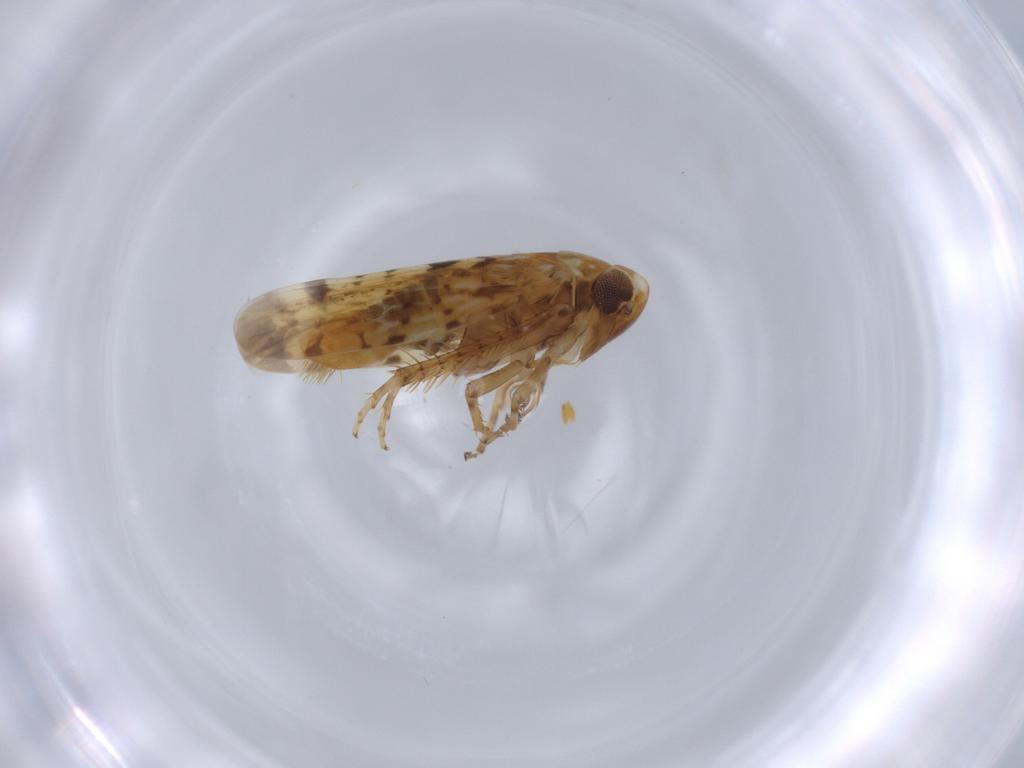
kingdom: Animalia
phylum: Arthropoda
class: Insecta
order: Hemiptera
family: Cicadellidae
